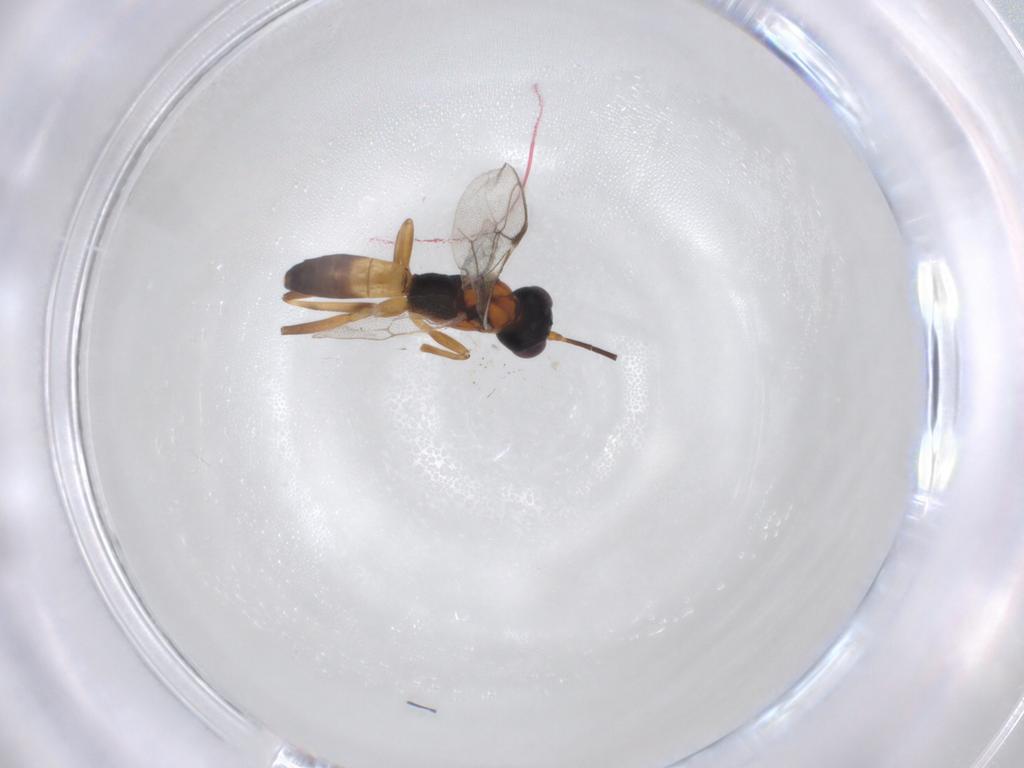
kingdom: Animalia
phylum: Arthropoda
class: Insecta
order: Hymenoptera
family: Ichneumonidae
